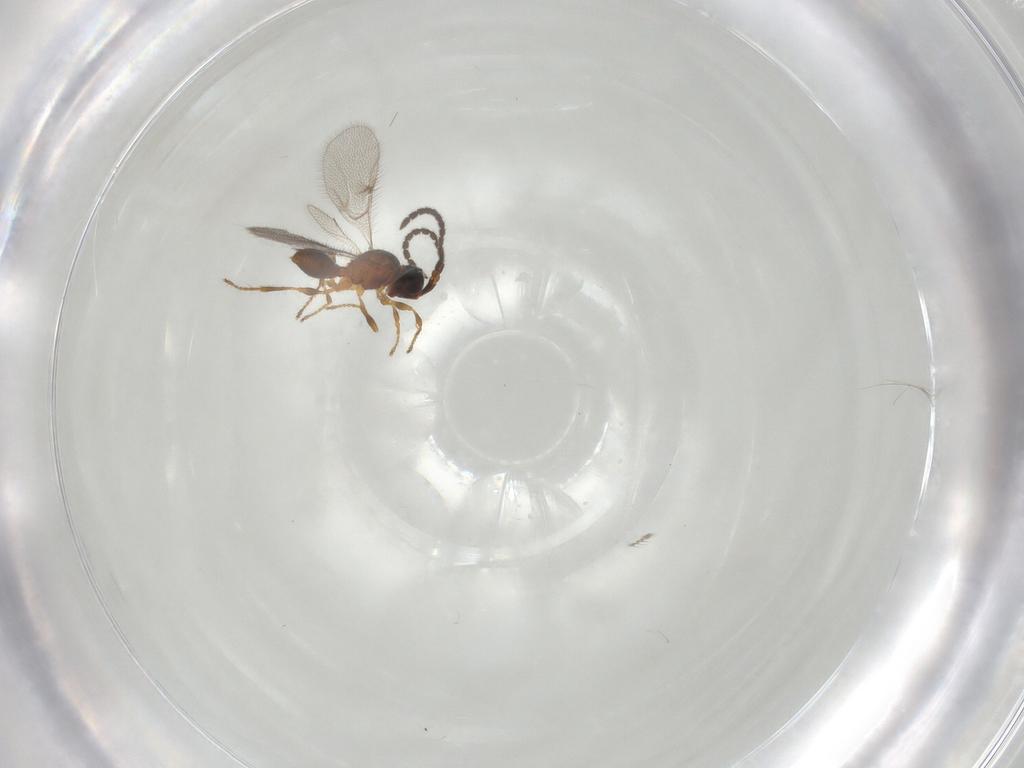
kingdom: Animalia
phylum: Arthropoda
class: Insecta
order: Hymenoptera
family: Diapriidae
